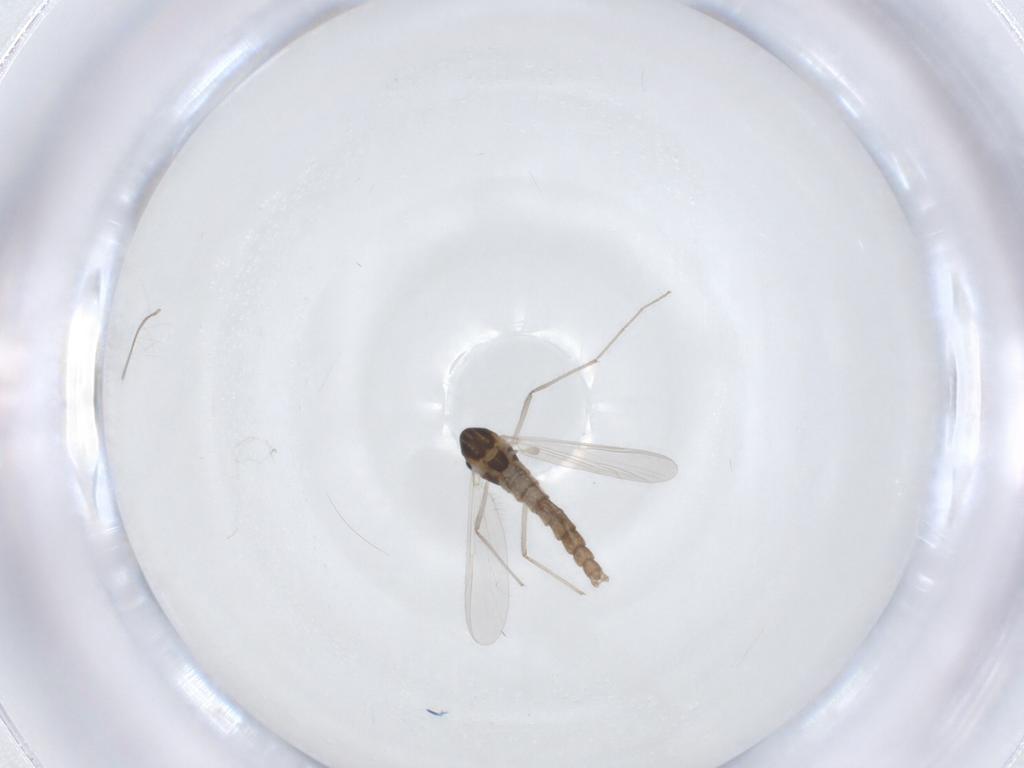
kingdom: Animalia
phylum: Arthropoda
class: Insecta
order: Diptera
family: Chironomidae
